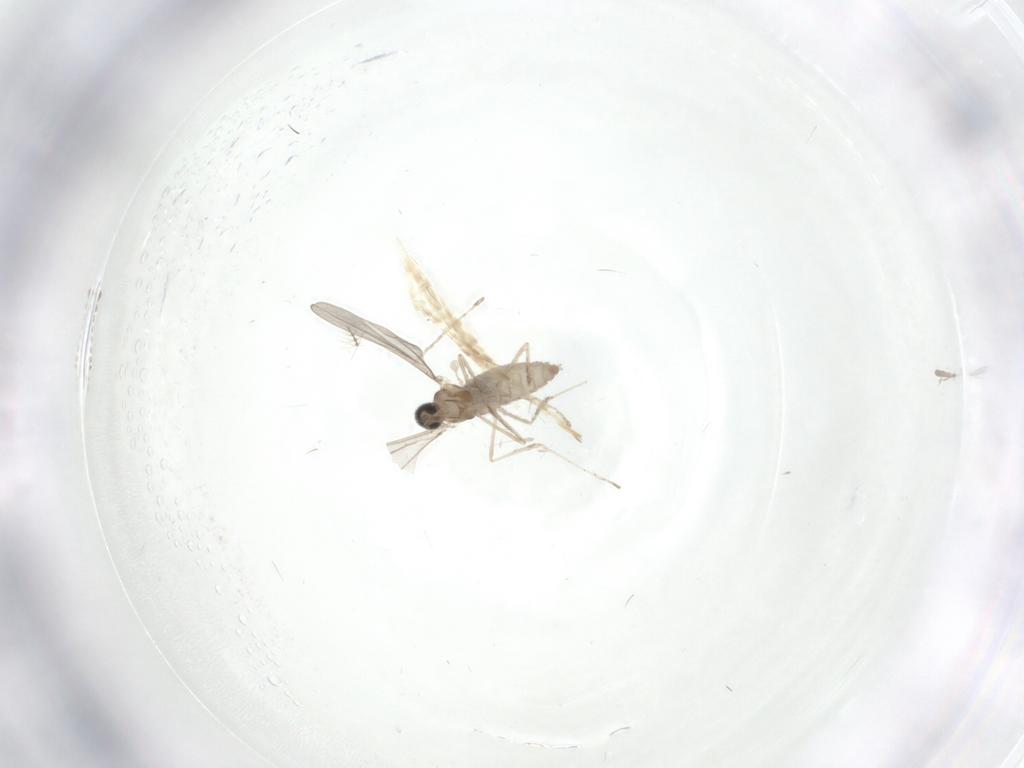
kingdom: Animalia
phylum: Arthropoda
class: Insecta
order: Diptera
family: Cecidomyiidae
